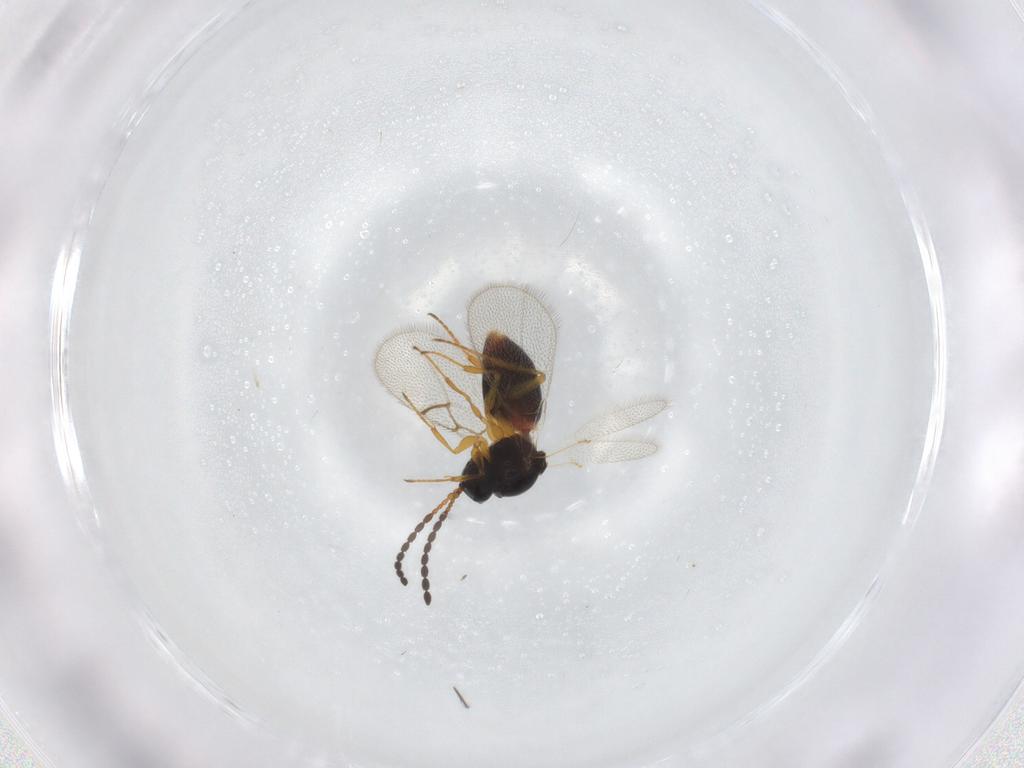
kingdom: Animalia
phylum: Arthropoda
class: Insecta
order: Hymenoptera
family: Figitidae
